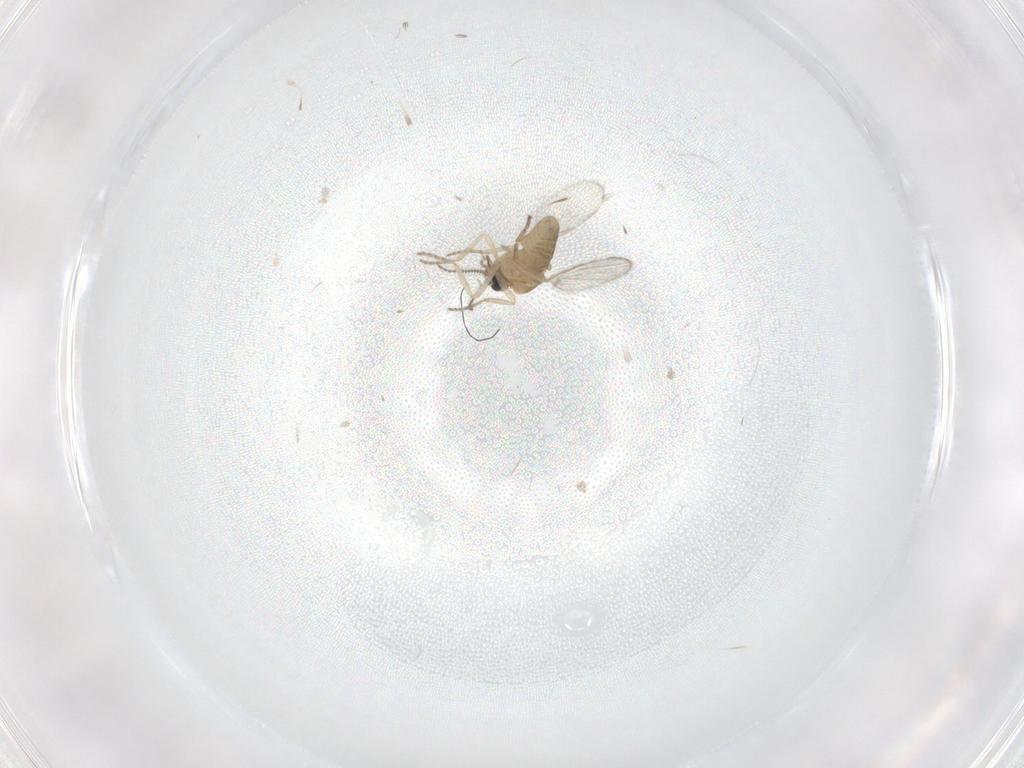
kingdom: Animalia
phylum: Arthropoda
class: Insecta
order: Diptera
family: Ceratopogonidae
